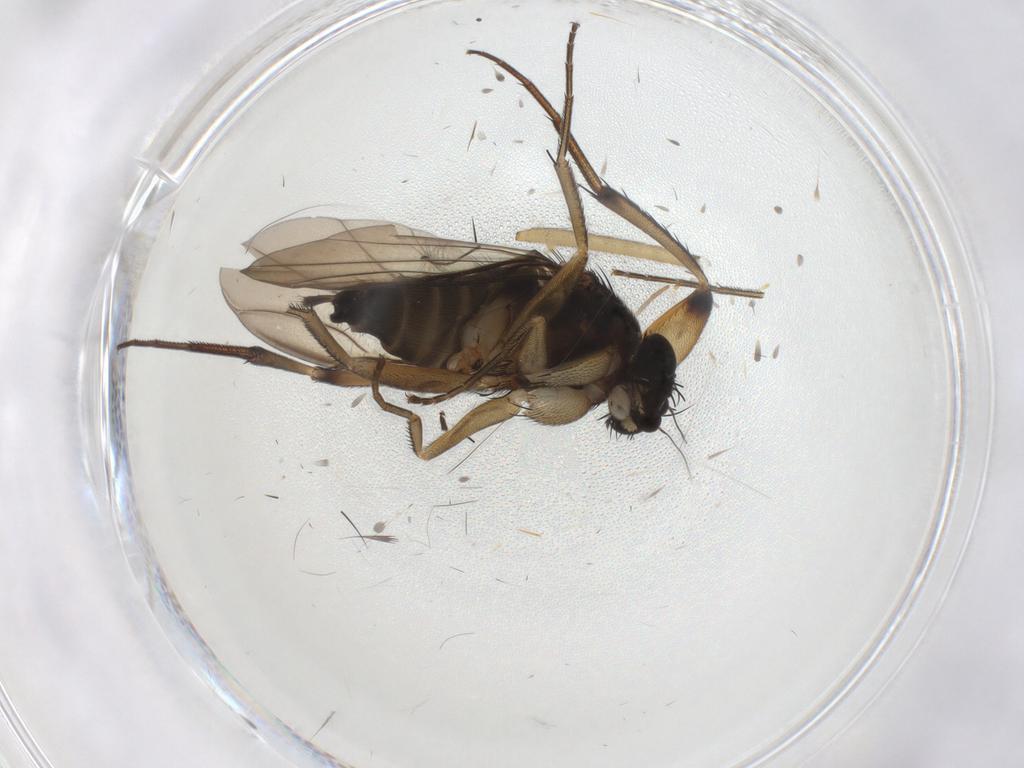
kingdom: Animalia
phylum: Arthropoda
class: Insecta
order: Diptera
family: Phoridae
